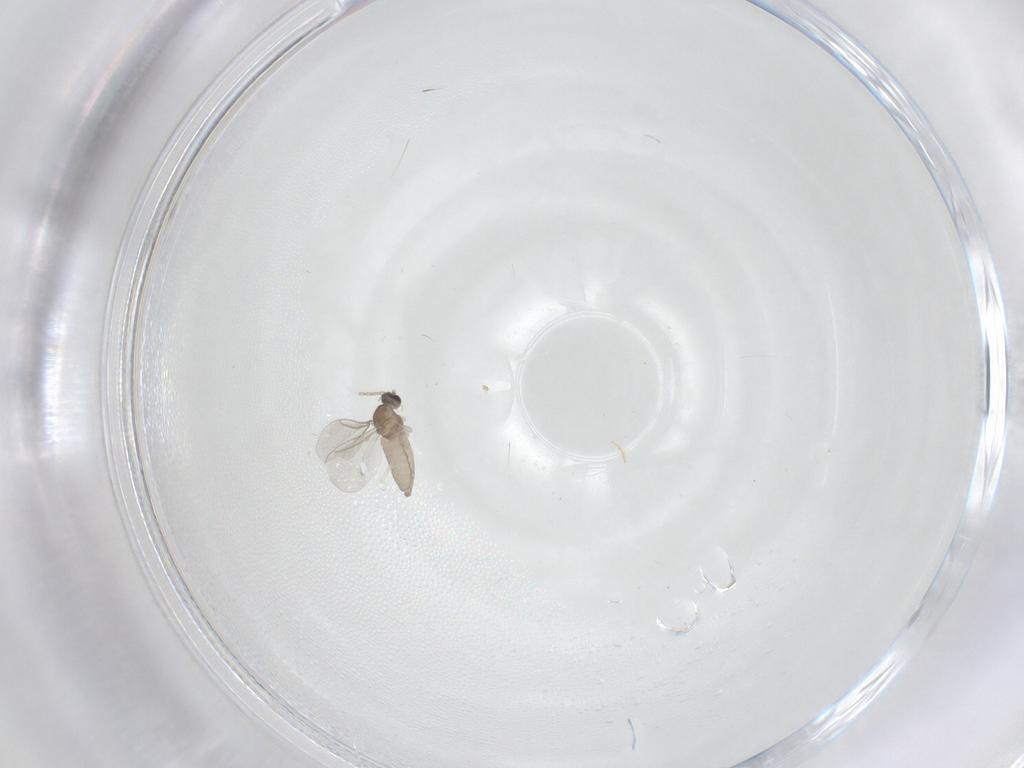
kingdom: Animalia
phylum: Arthropoda
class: Insecta
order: Diptera
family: Cecidomyiidae
